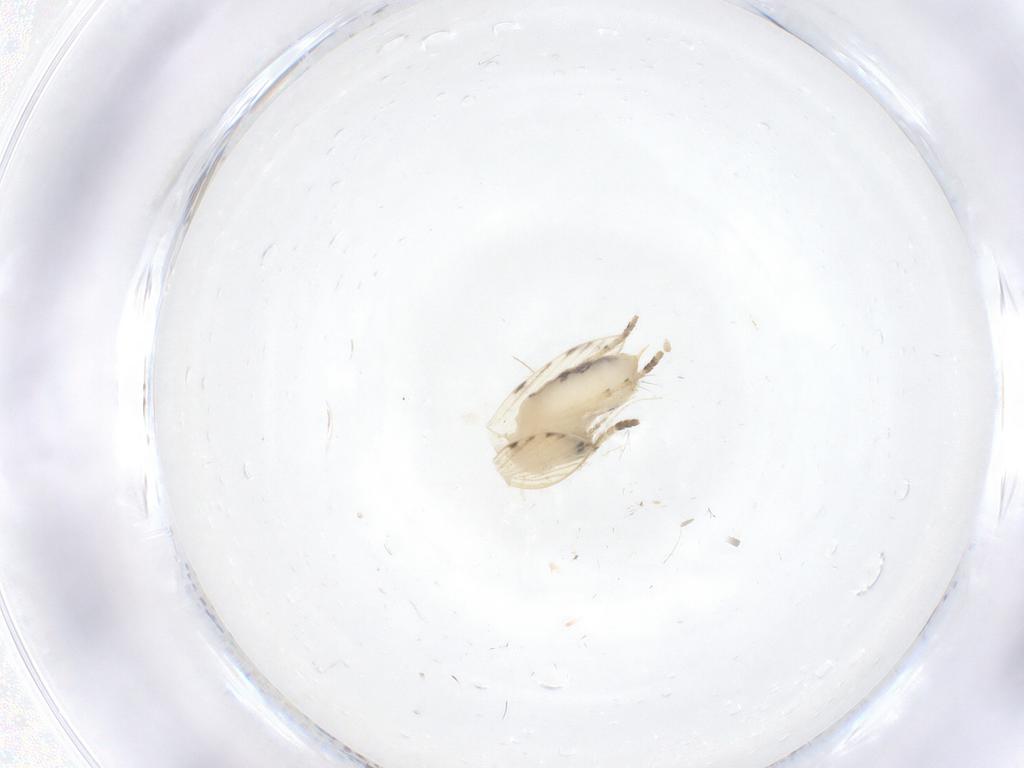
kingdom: Animalia
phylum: Arthropoda
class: Insecta
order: Diptera
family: Psychodidae
